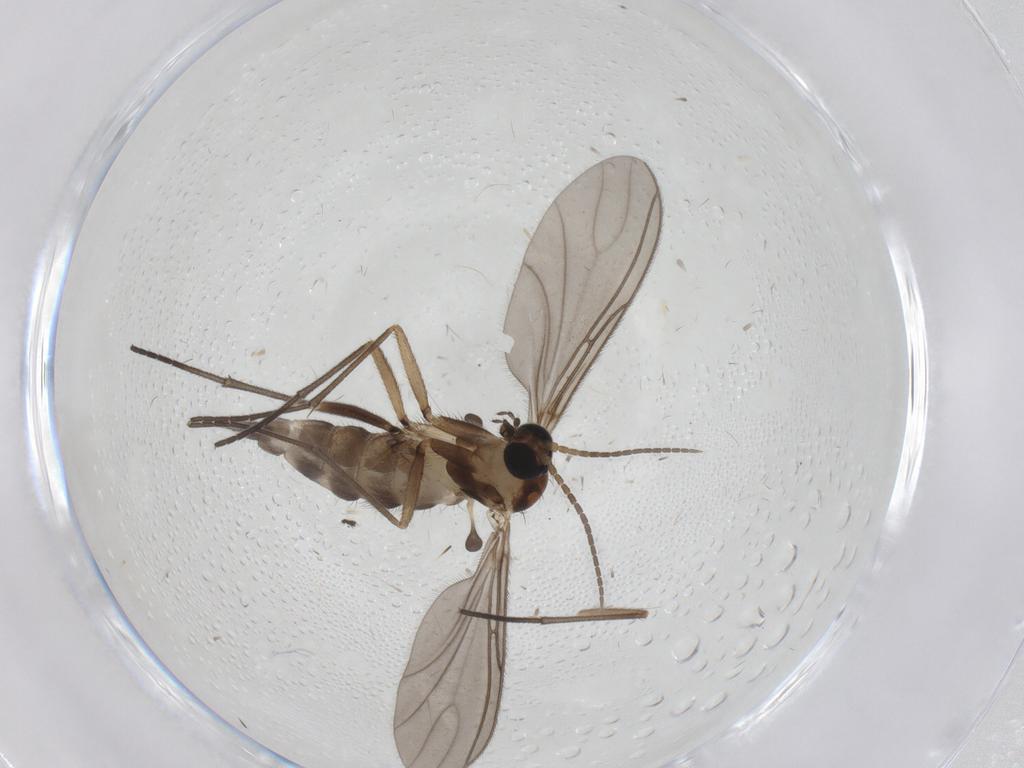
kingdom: Animalia
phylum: Arthropoda
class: Insecta
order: Diptera
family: Sciaridae
